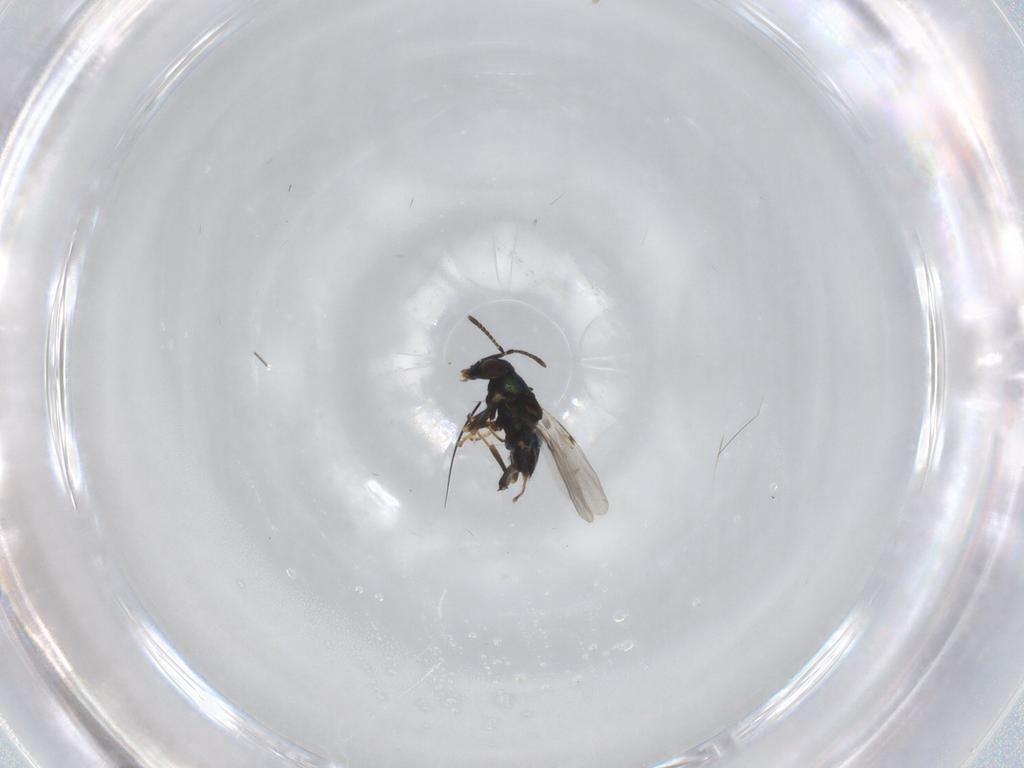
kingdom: Animalia
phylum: Arthropoda
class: Insecta
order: Hymenoptera
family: Encyrtidae
